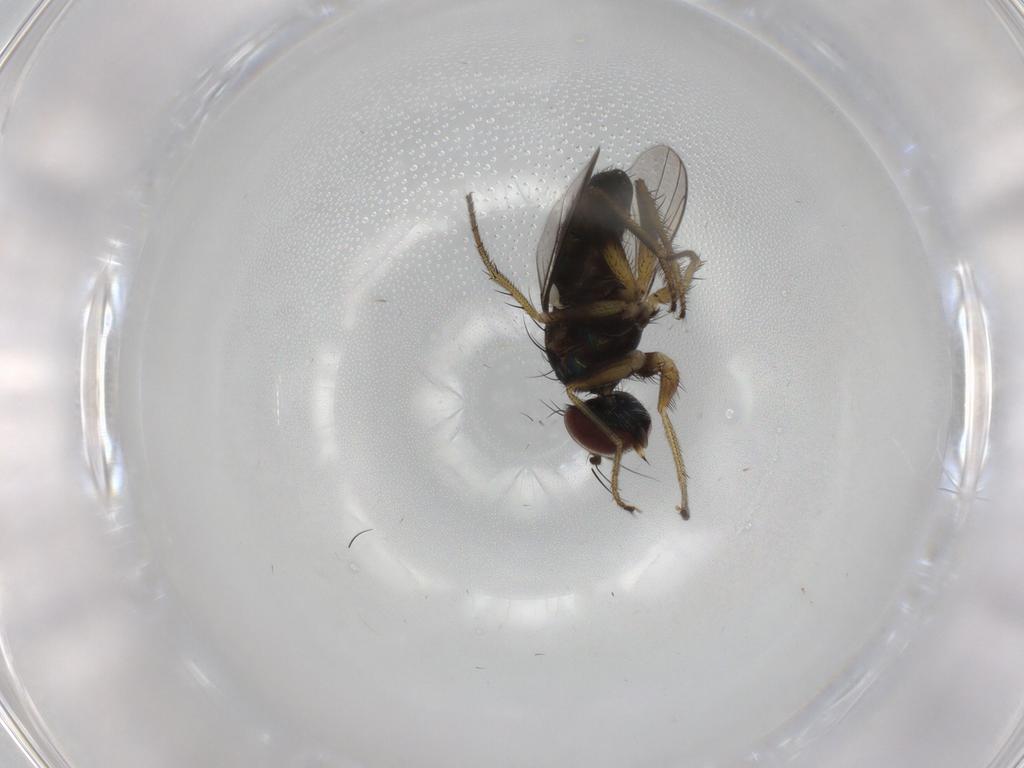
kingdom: Animalia
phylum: Arthropoda
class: Insecta
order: Diptera
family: Dolichopodidae
